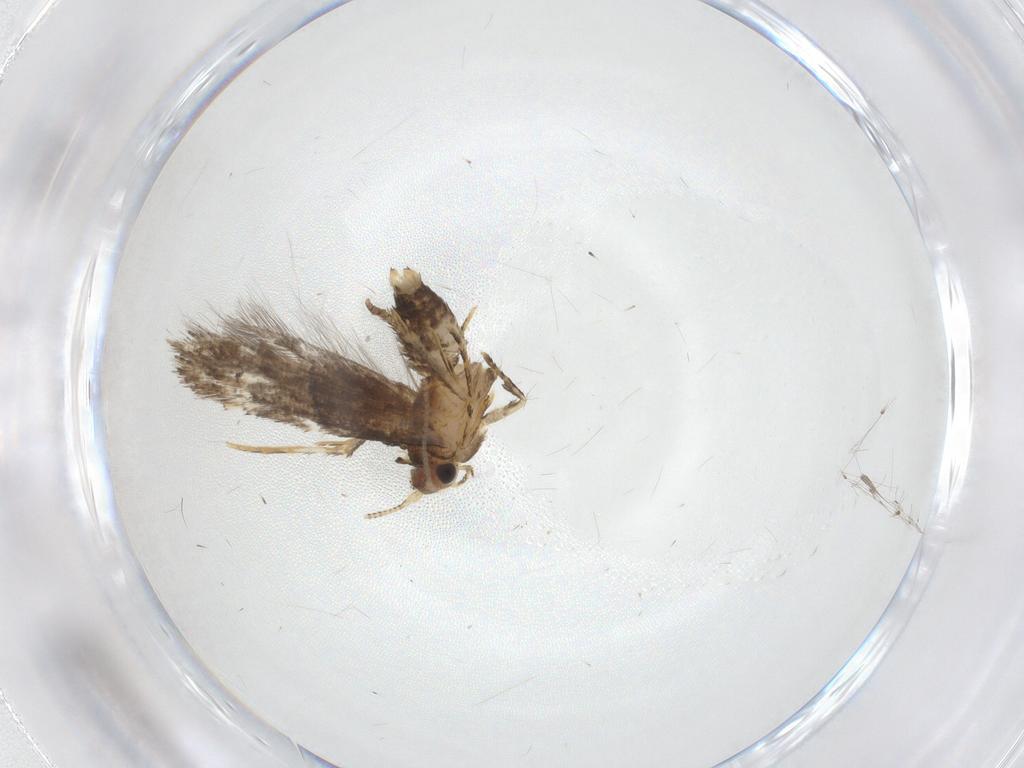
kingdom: Animalia
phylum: Arthropoda
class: Insecta
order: Lepidoptera
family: Meessiidae
